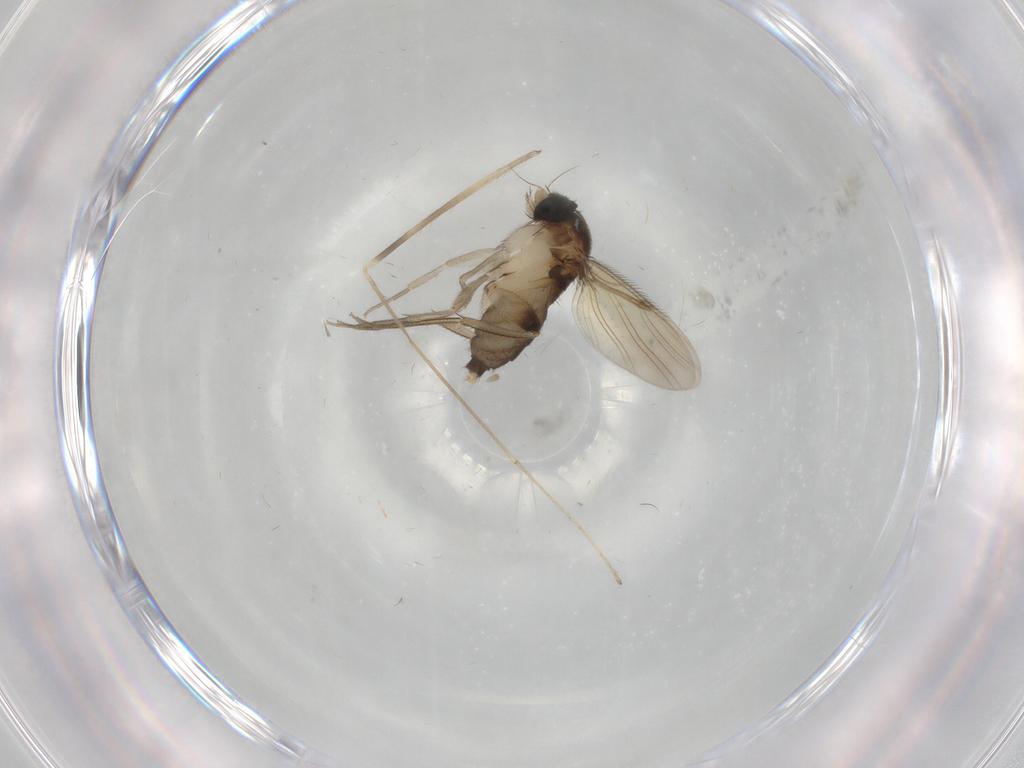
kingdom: Animalia
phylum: Arthropoda
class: Insecta
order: Diptera
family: Phoridae
